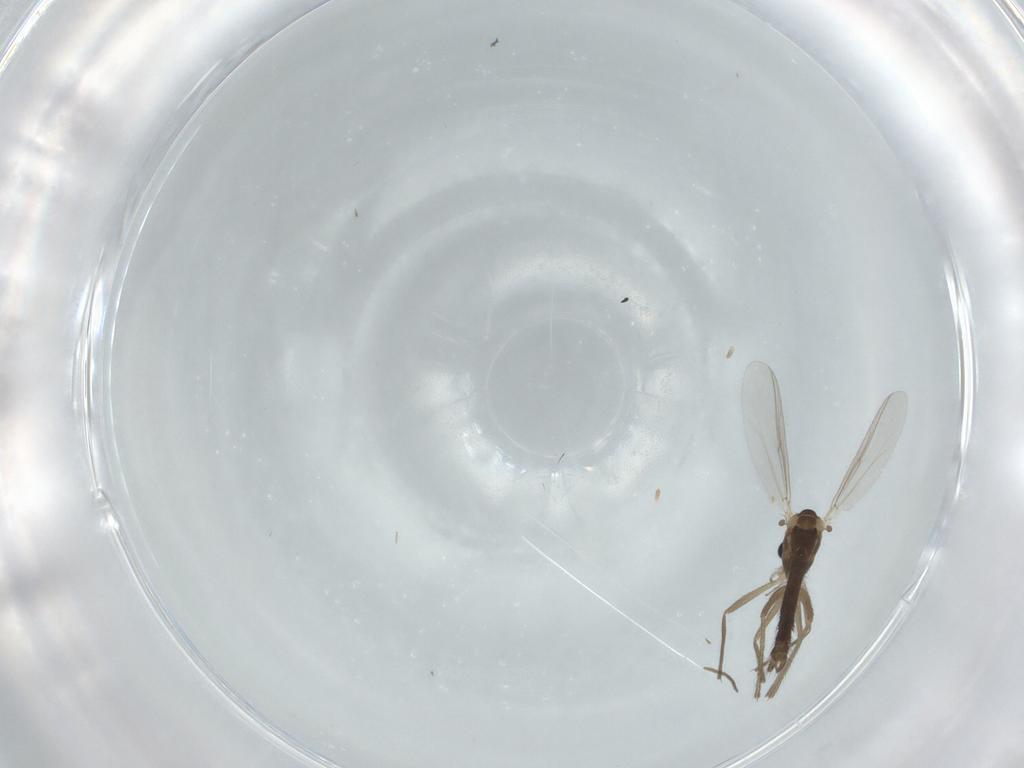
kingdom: Animalia
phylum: Arthropoda
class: Insecta
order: Diptera
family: Chironomidae
